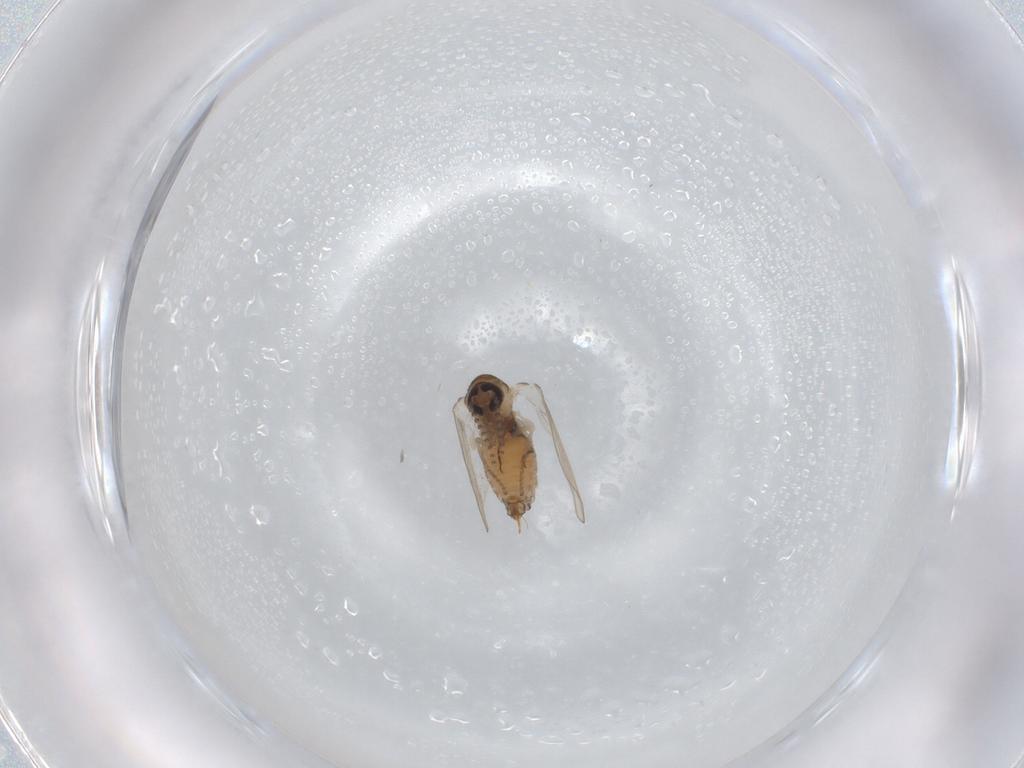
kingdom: Animalia
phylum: Arthropoda
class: Insecta
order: Diptera
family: Psychodidae
